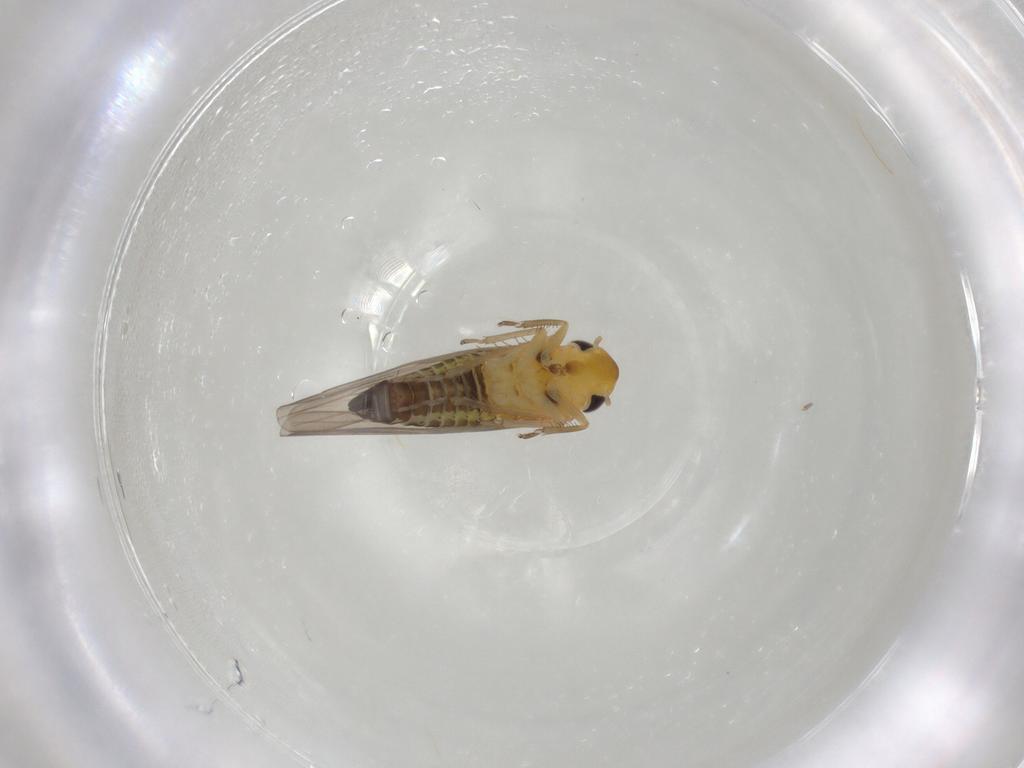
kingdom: Animalia
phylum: Arthropoda
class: Insecta
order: Hemiptera
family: Cicadellidae
